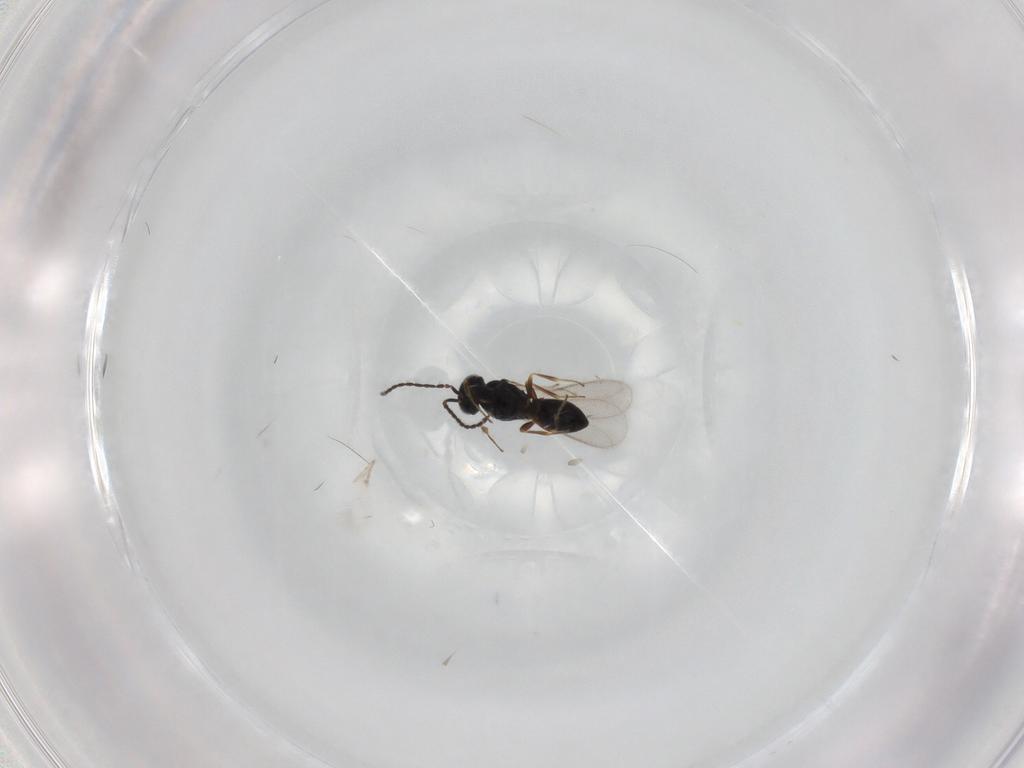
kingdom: Animalia
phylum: Arthropoda
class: Insecta
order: Hymenoptera
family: Scelionidae
